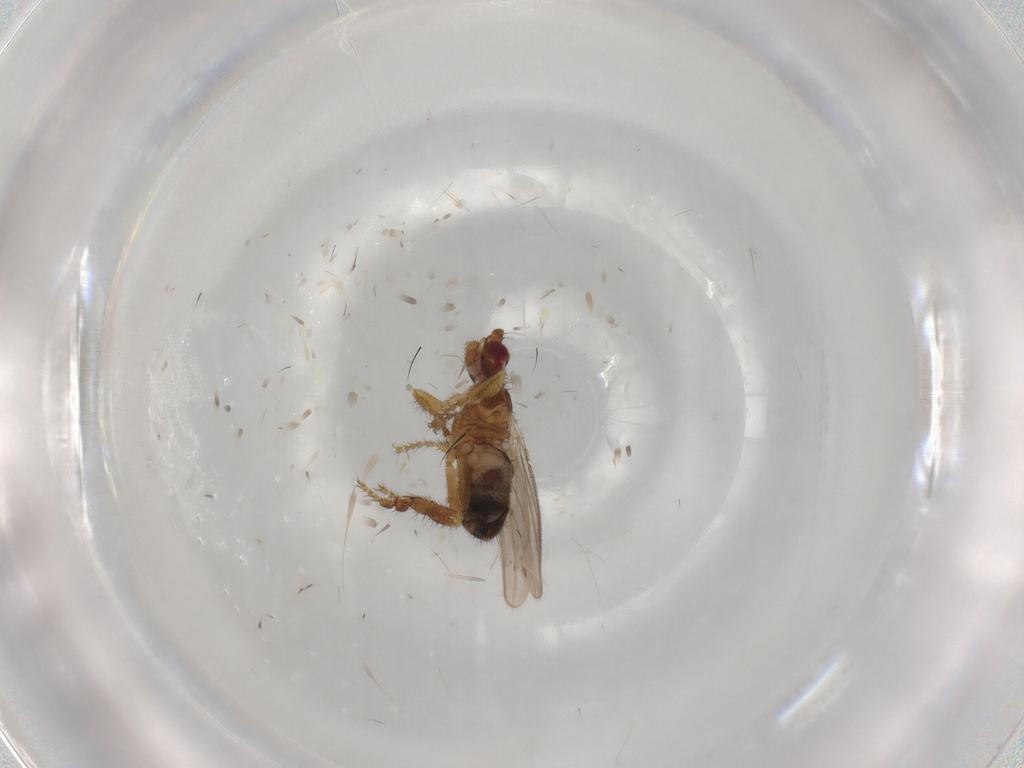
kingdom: Animalia
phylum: Arthropoda
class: Insecta
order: Diptera
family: Sphaeroceridae
